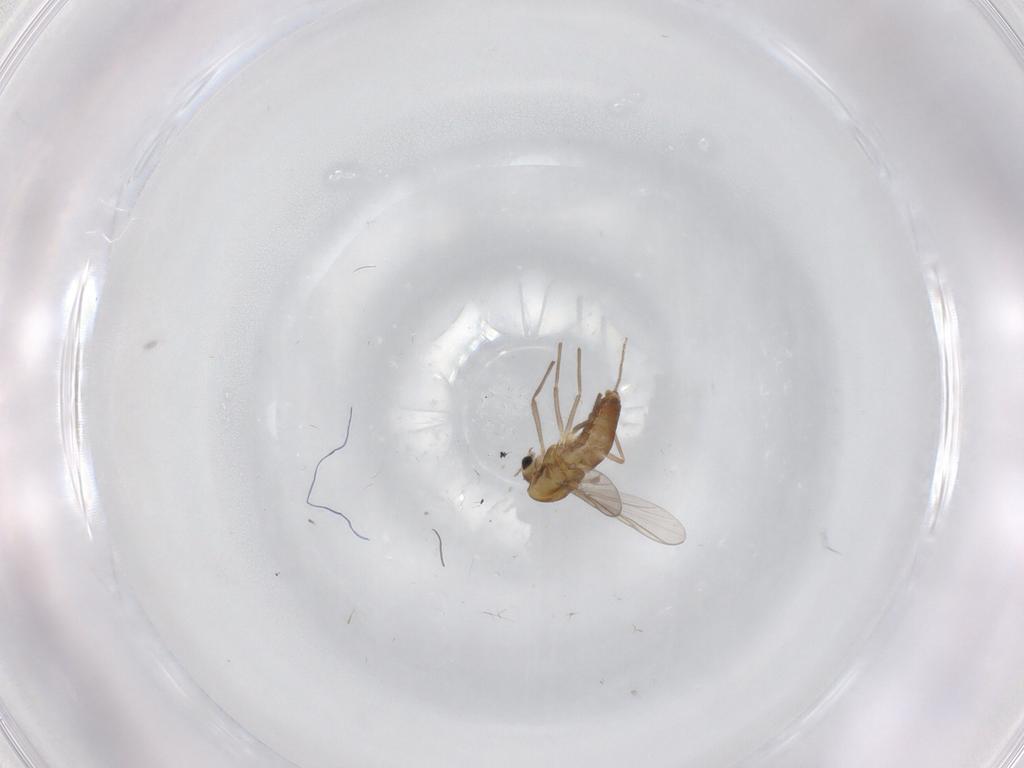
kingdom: Animalia
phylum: Arthropoda
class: Insecta
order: Diptera
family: Chironomidae
